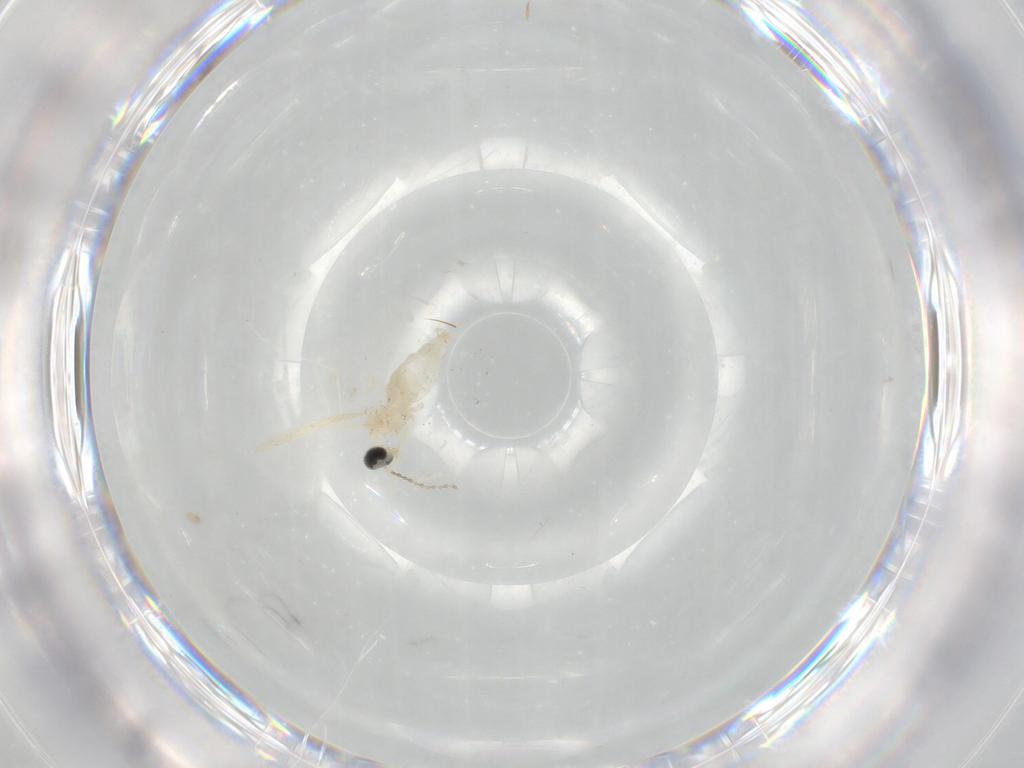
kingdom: Animalia
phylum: Arthropoda
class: Insecta
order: Diptera
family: Cecidomyiidae
